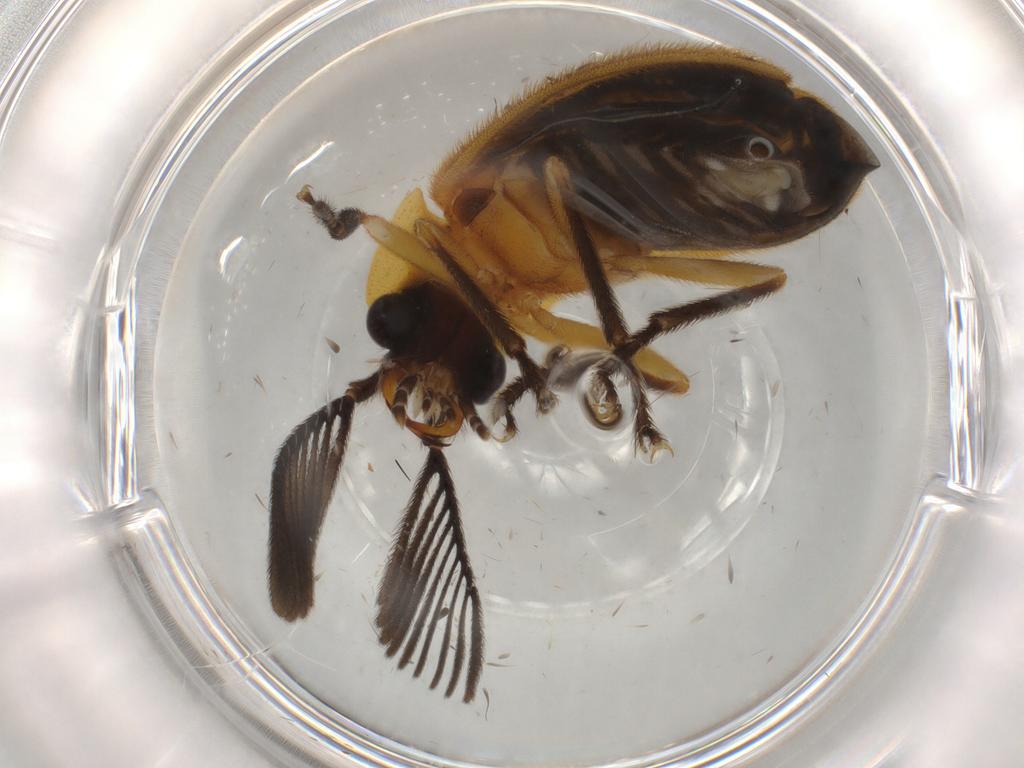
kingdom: Animalia
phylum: Arthropoda
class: Insecta
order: Coleoptera
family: Lampyridae
